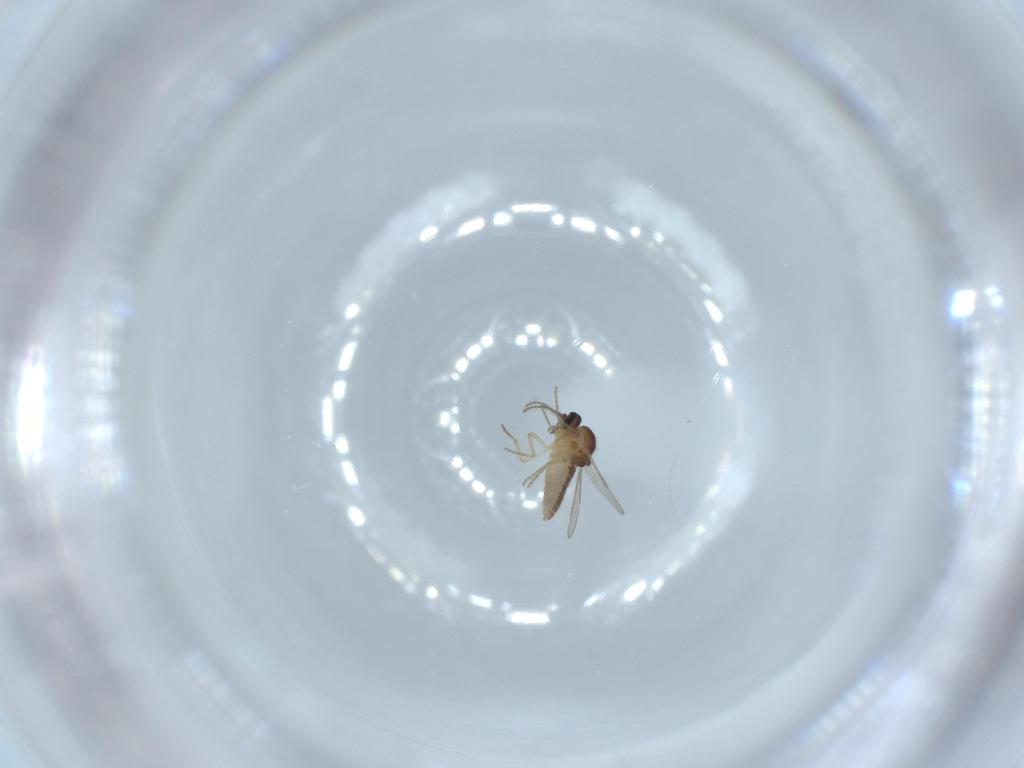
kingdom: Animalia
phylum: Arthropoda
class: Insecta
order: Diptera
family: Ceratopogonidae
